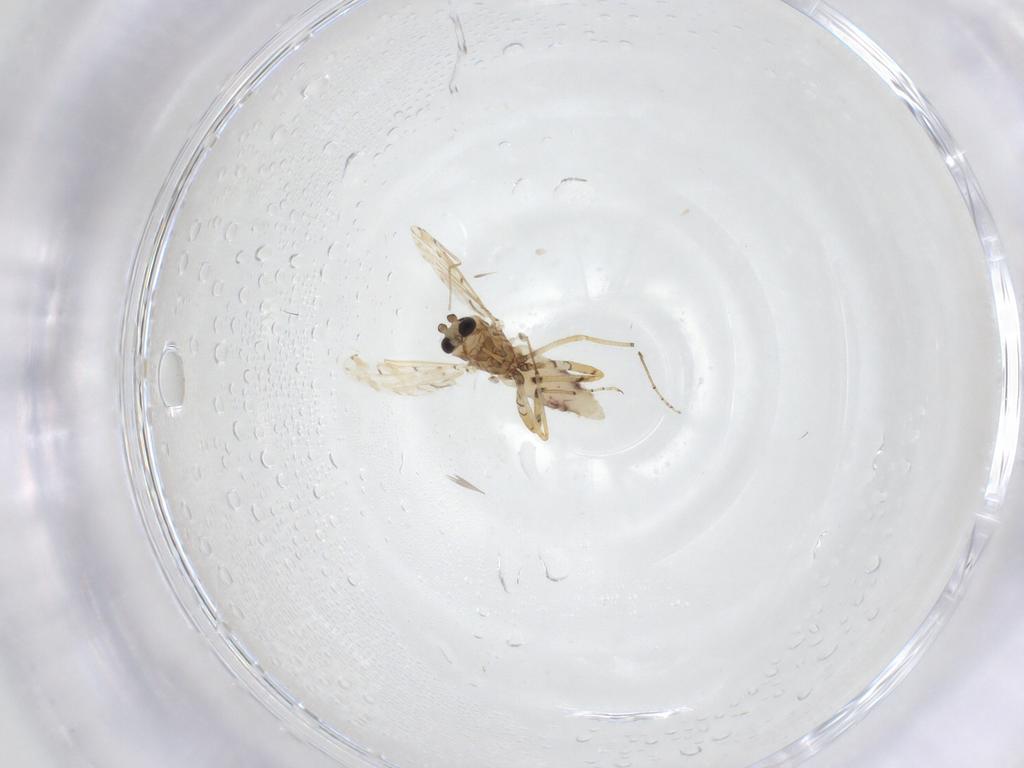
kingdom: Animalia
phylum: Arthropoda
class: Insecta
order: Diptera
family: Ceratopogonidae
